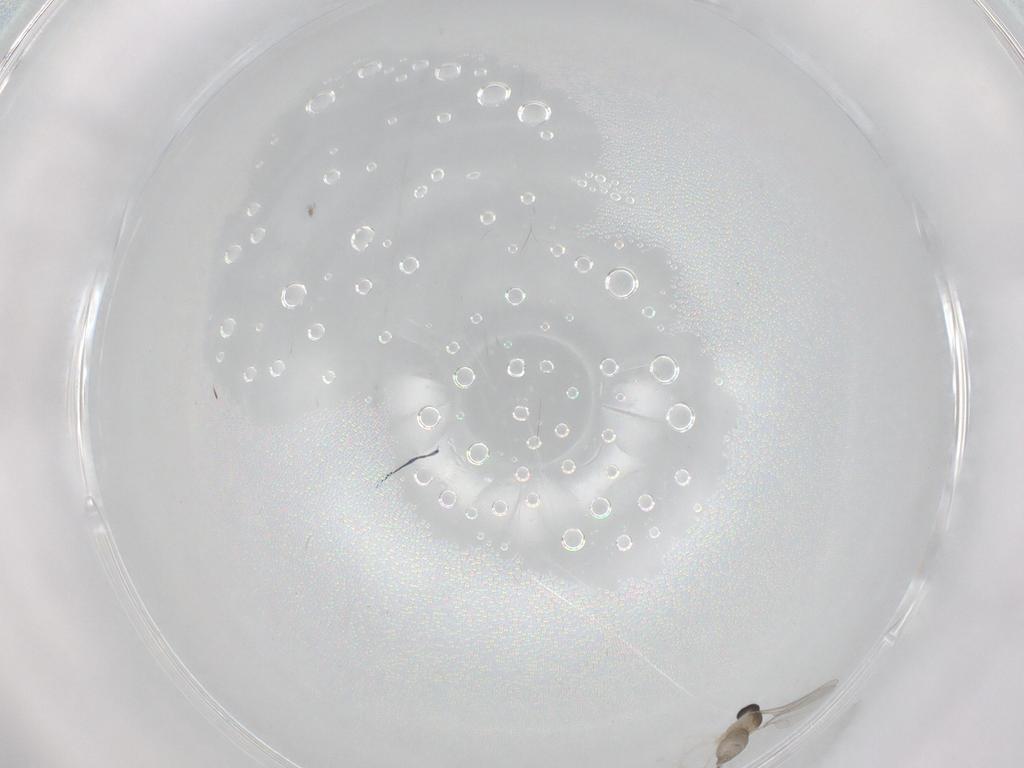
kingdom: Animalia
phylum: Arthropoda
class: Insecta
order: Diptera
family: Cecidomyiidae
